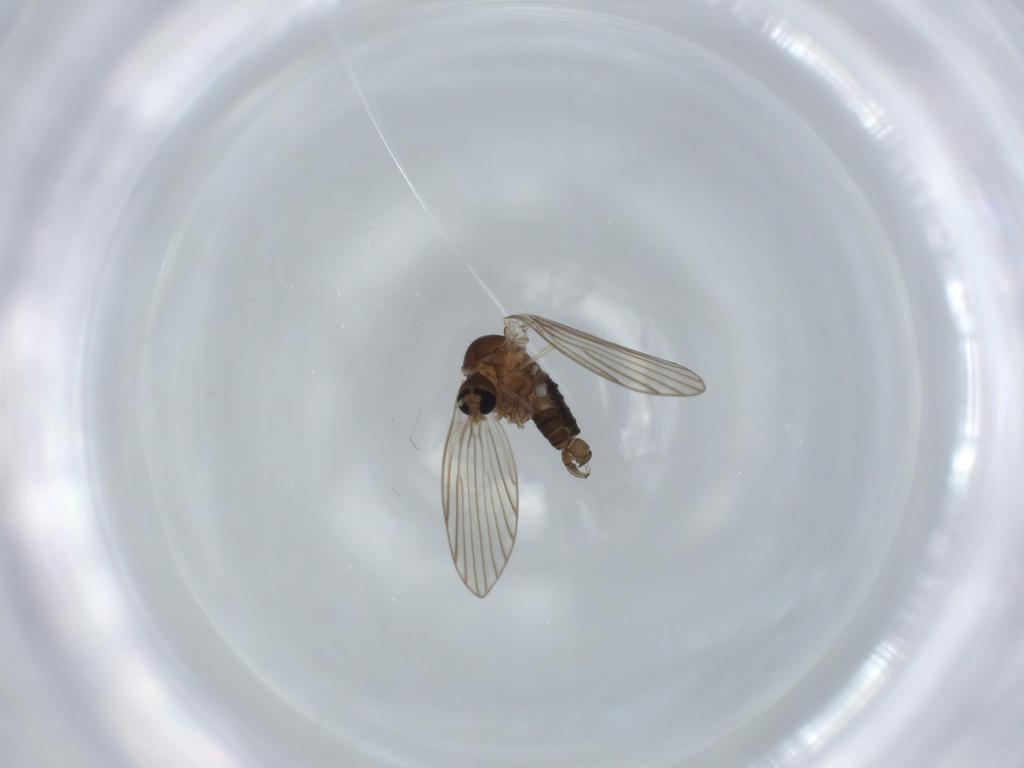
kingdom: Animalia
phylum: Arthropoda
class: Insecta
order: Diptera
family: Psychodidae
